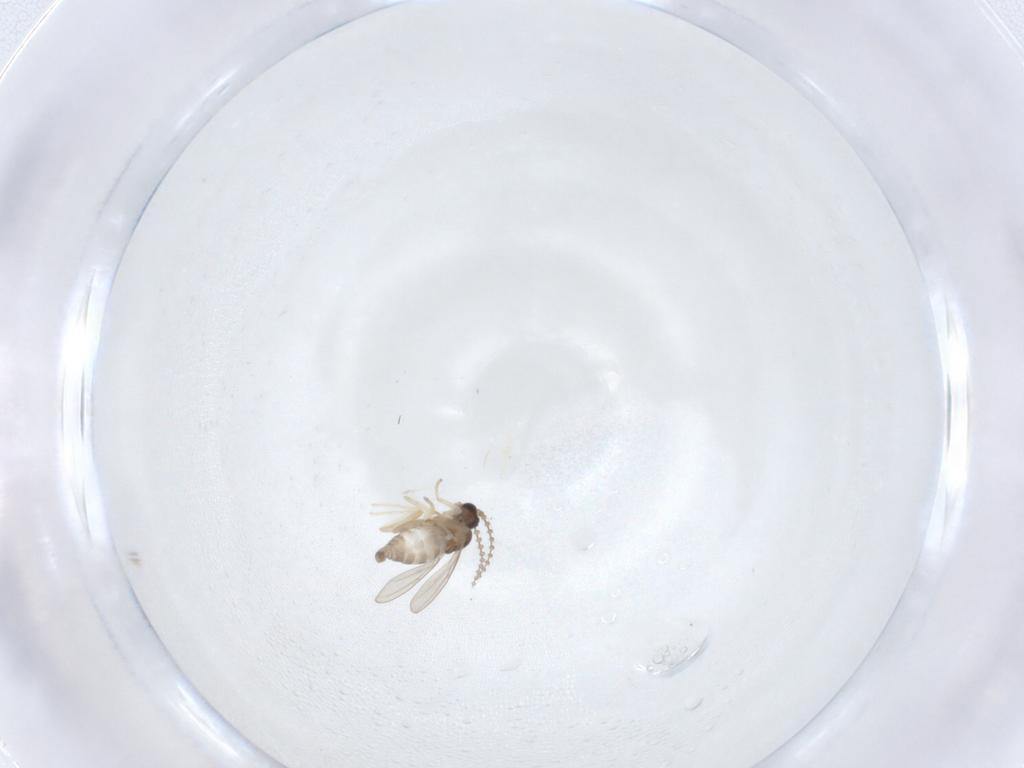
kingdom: Animalia
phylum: Arthropoda
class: Insecta
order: Diptera
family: Cecidomyiidae
